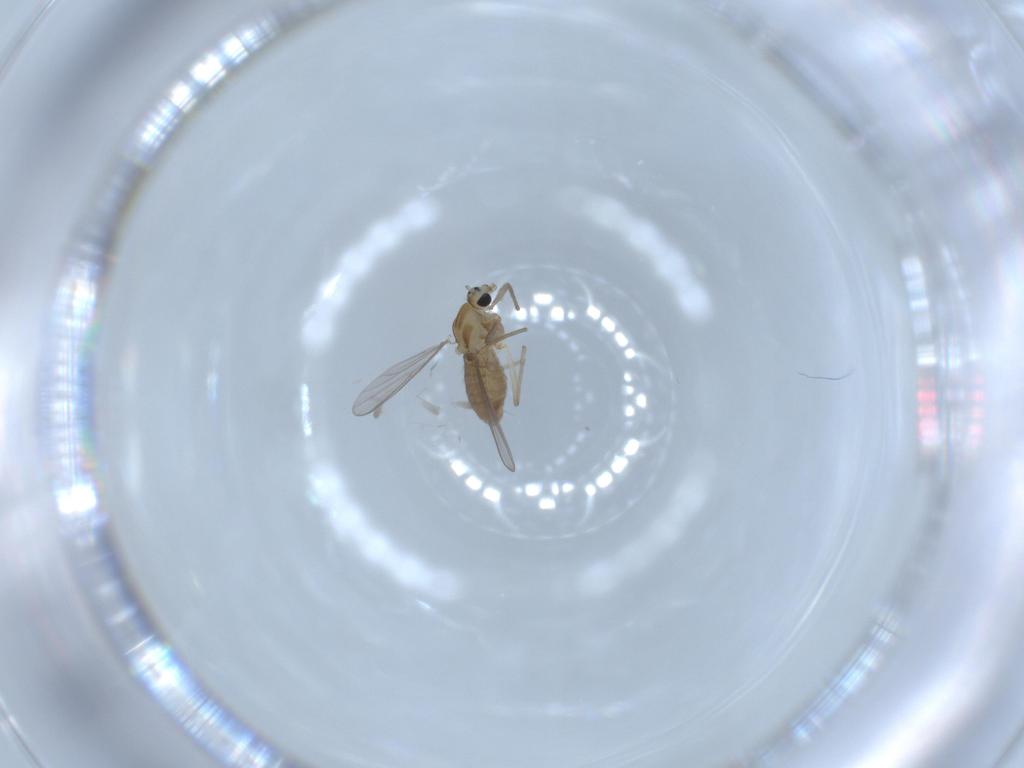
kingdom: Animalia
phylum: Arthropoda
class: Insecta
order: Diptera
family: Chironomidae
